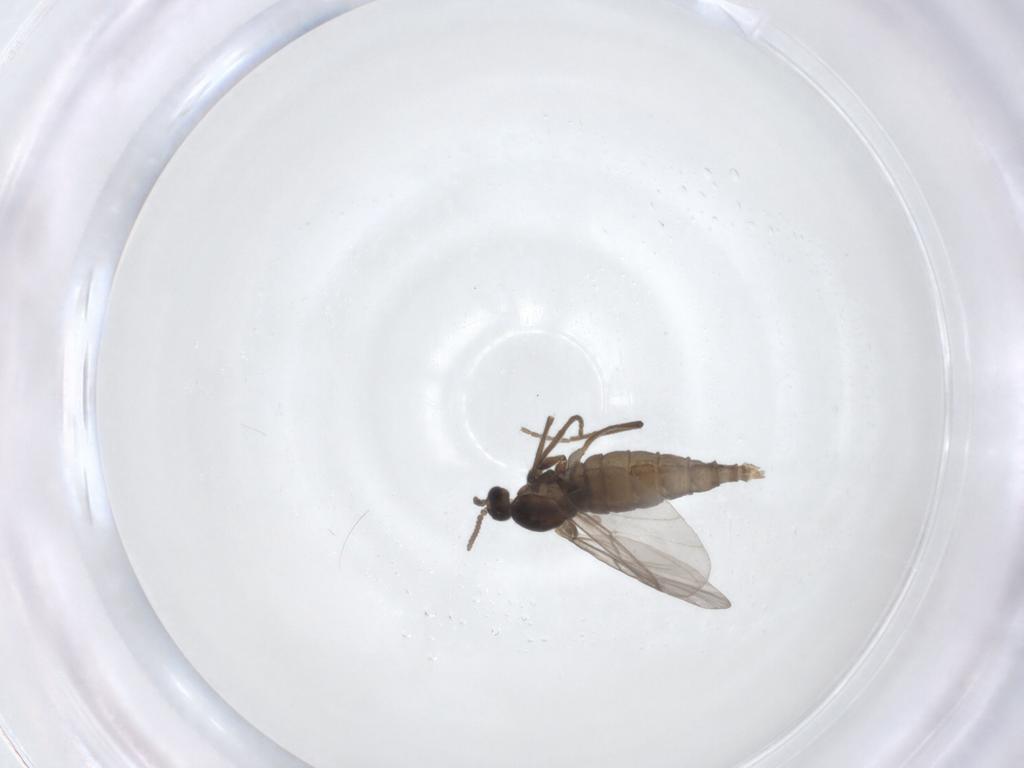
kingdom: Animalia
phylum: Arthropoda
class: Insecta
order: Diptera
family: Cecidomyiidae
